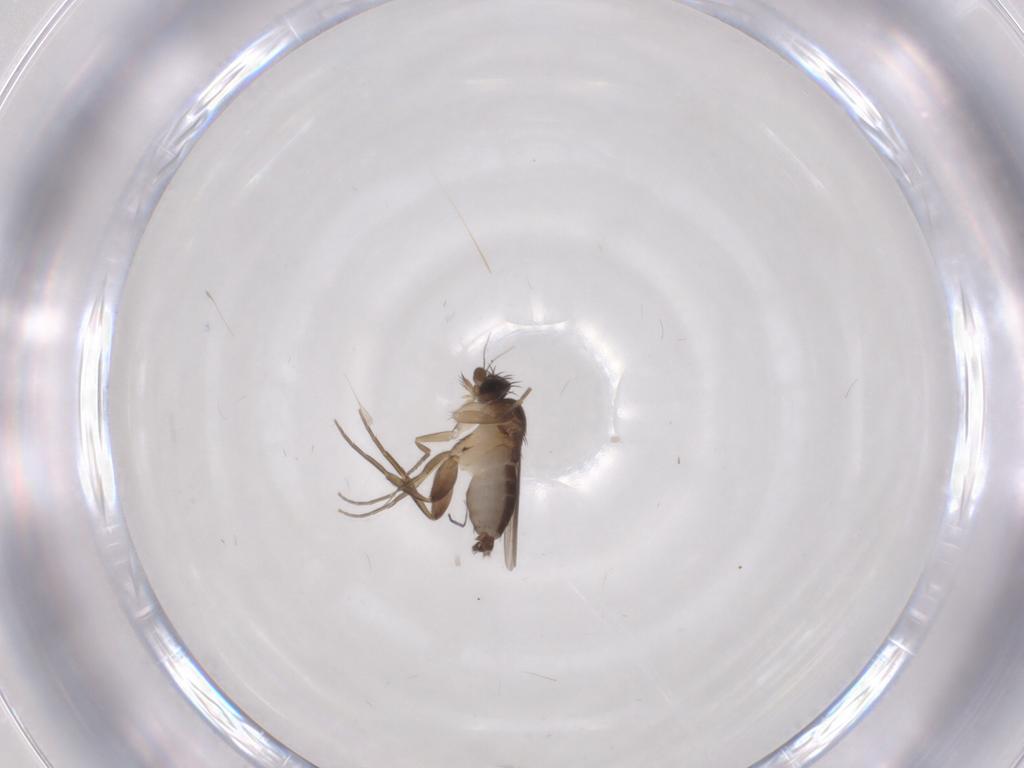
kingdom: Animalia
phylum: Arthropoda
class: Insecta
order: Diptera
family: Phoridae
